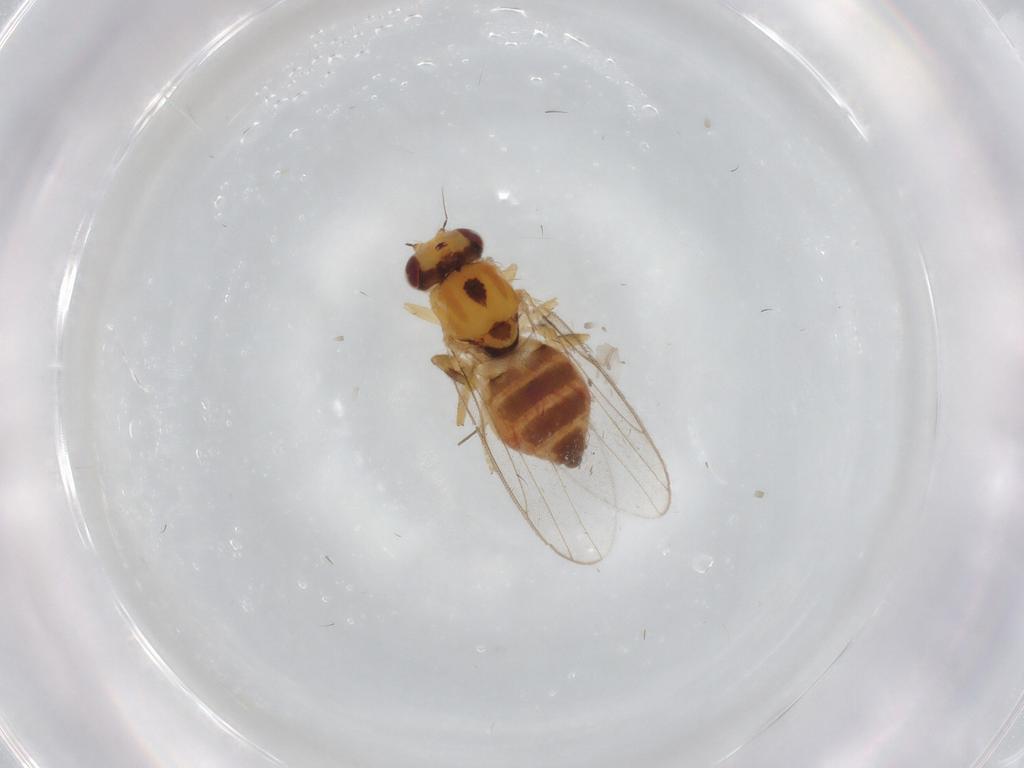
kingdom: Animalia
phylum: Arthropoda
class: Insecta
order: Diptera
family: Chloropidae
